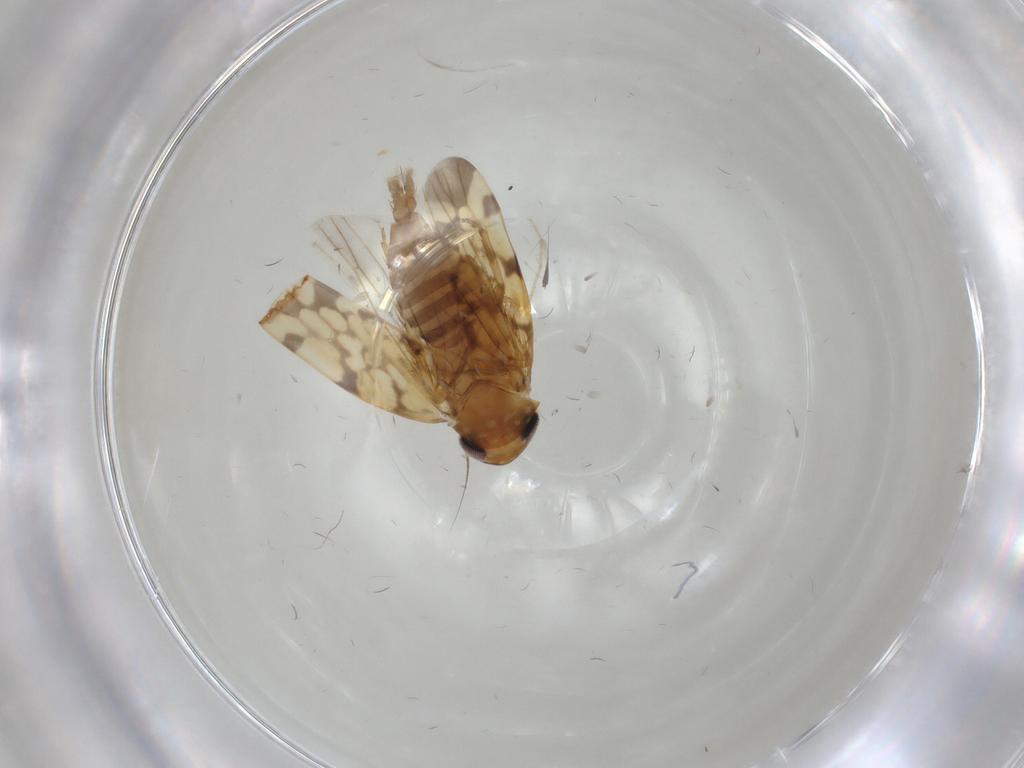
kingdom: Animalia
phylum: Arthropoda
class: Insecta
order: Hemiptera
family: Cicadellidae
